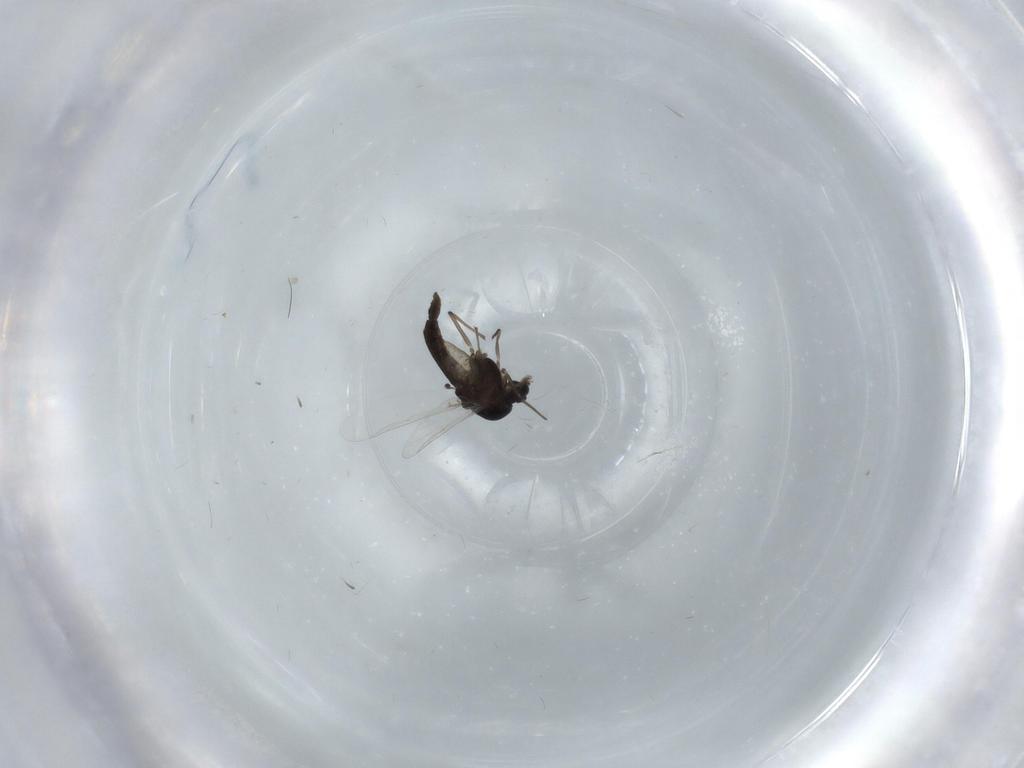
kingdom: Animalia
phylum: Arthropoda
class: Insecta
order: Diptera
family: Chironomidae
